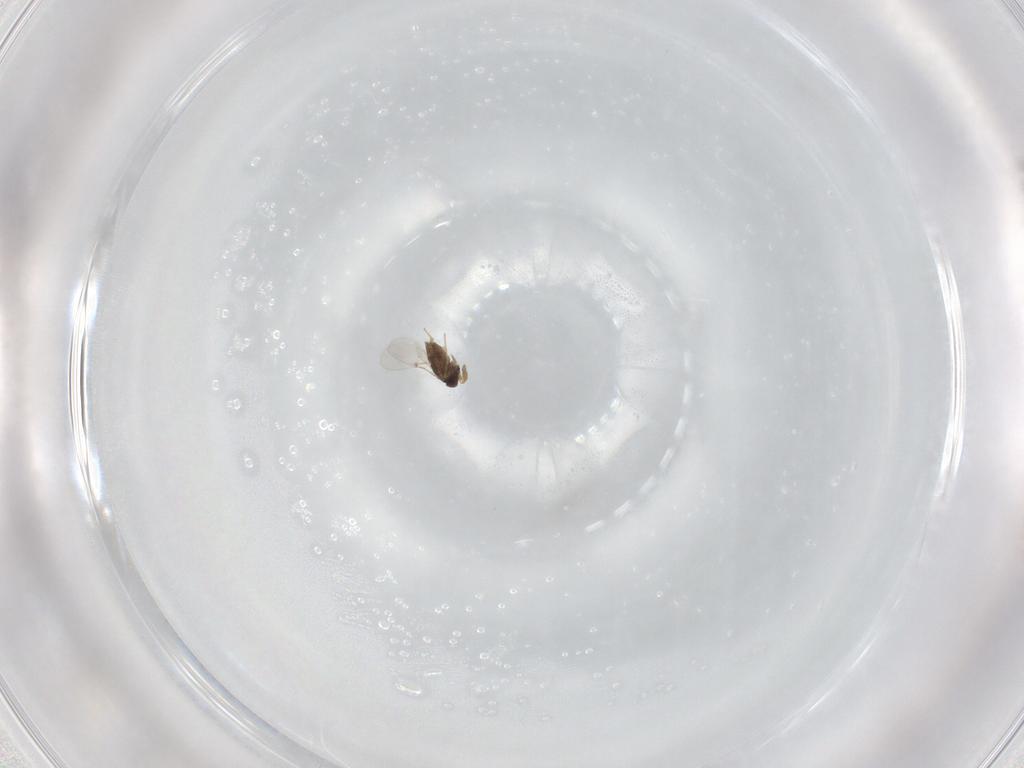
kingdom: Animalia
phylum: Arthropoda
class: Insecta
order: Hymenoptera
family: Encyrtidae
